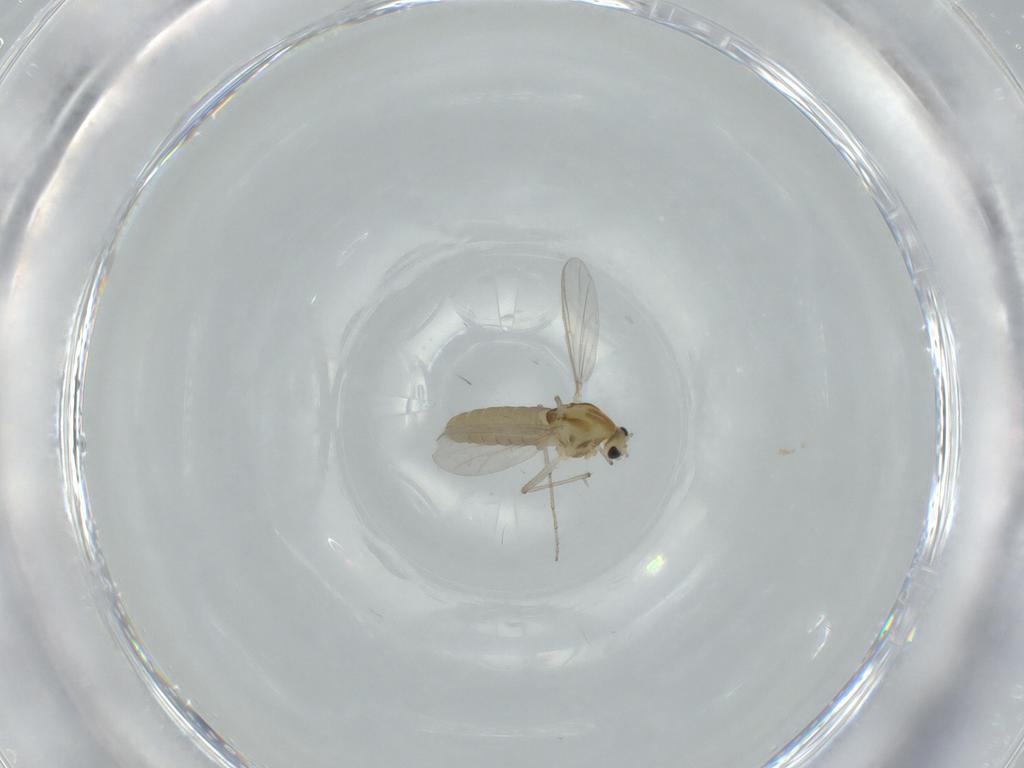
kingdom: Animalia
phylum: Arthropoda
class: Insecta
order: Diptera
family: Chironomidae
